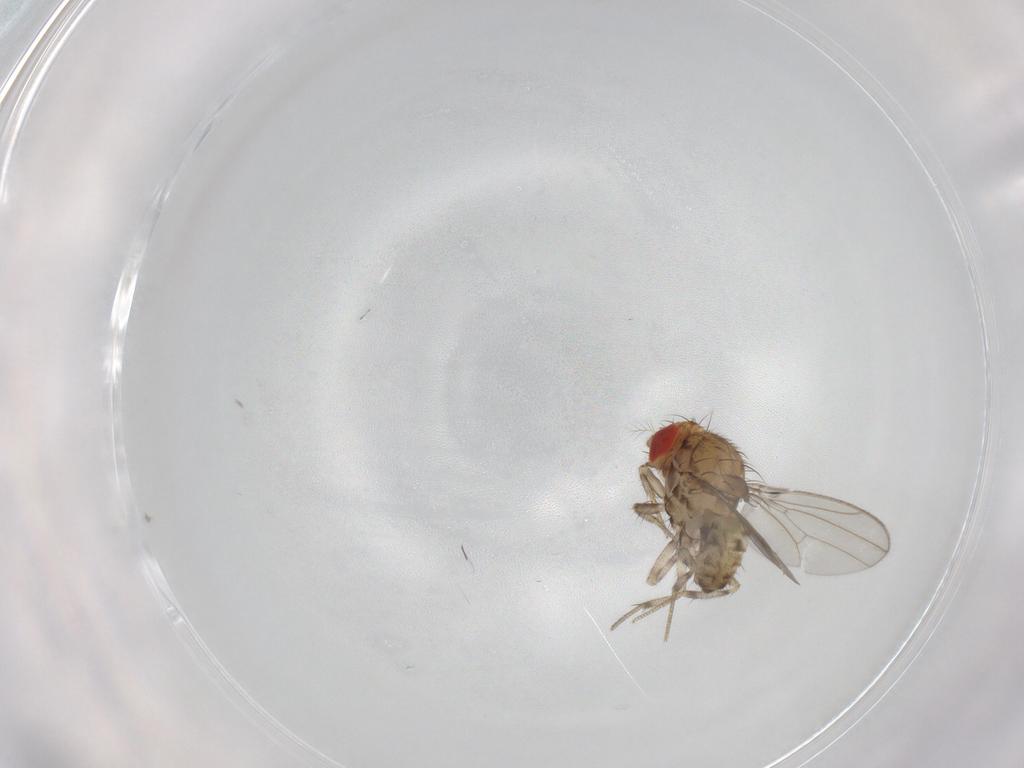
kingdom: Animalia
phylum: Arthropoda
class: Insecta
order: Diptera
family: Drosophilidae
